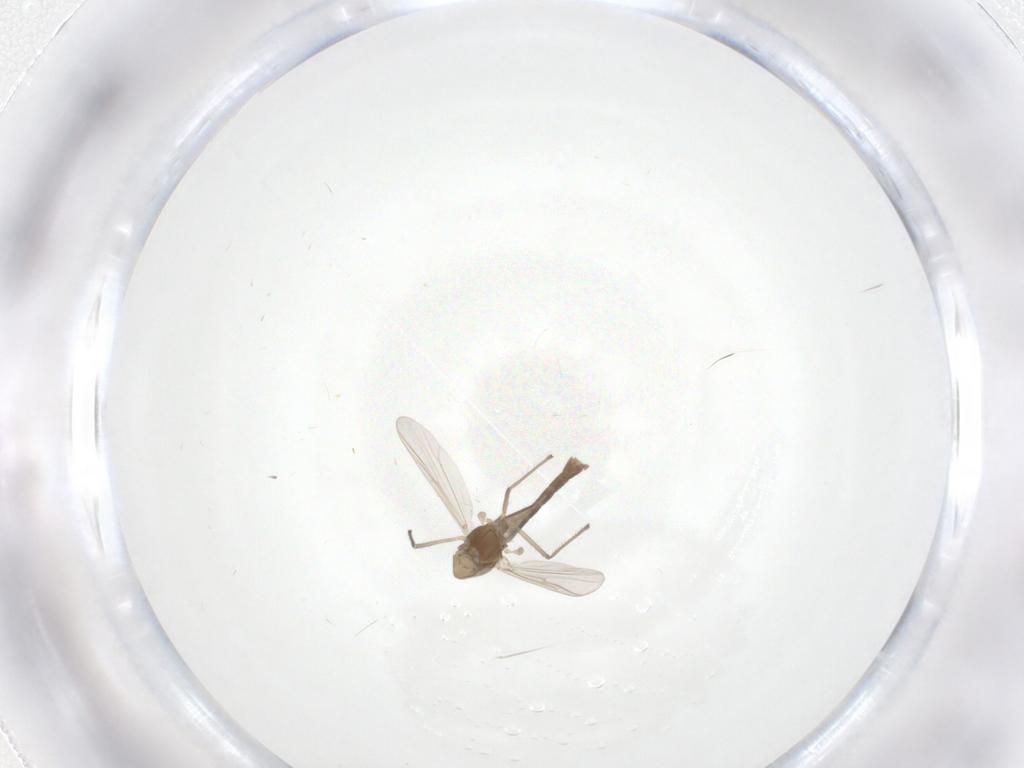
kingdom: Animalia
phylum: Arthropoda
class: Insecta
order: Diptera
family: Chironomidae
